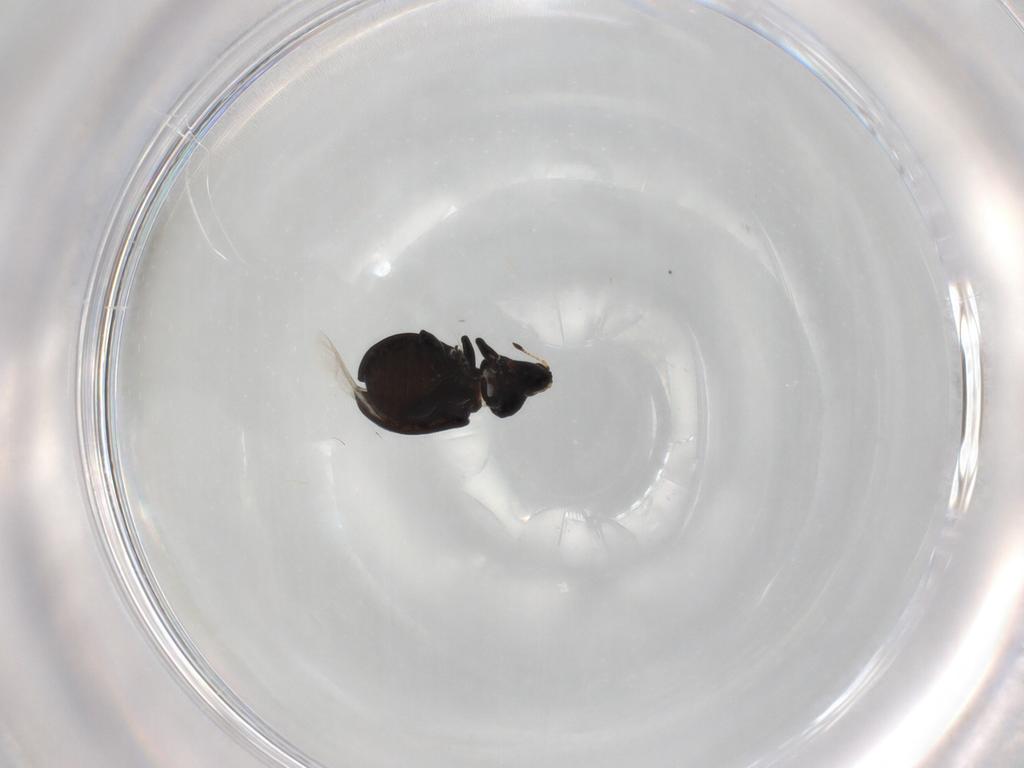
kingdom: Animalia
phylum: Arthropoda
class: Insecta
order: Coleoptera
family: Curculionidae
